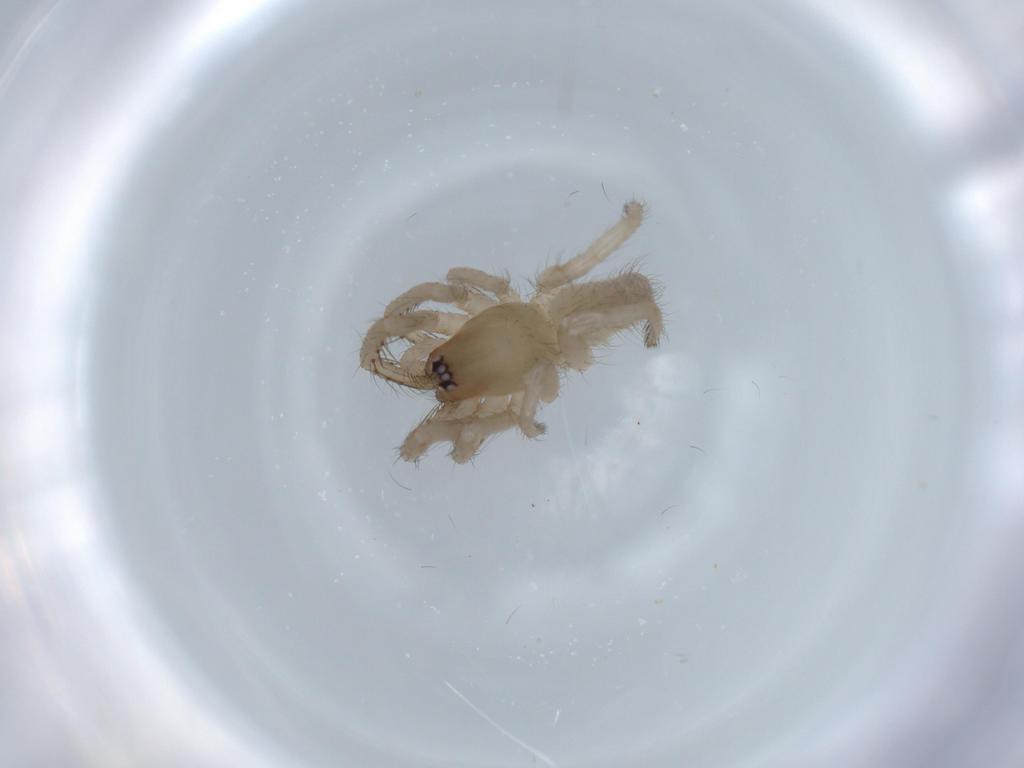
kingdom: Animalia
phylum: Arthropoda
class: Arachnida
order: Araneae
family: Segestriidae
